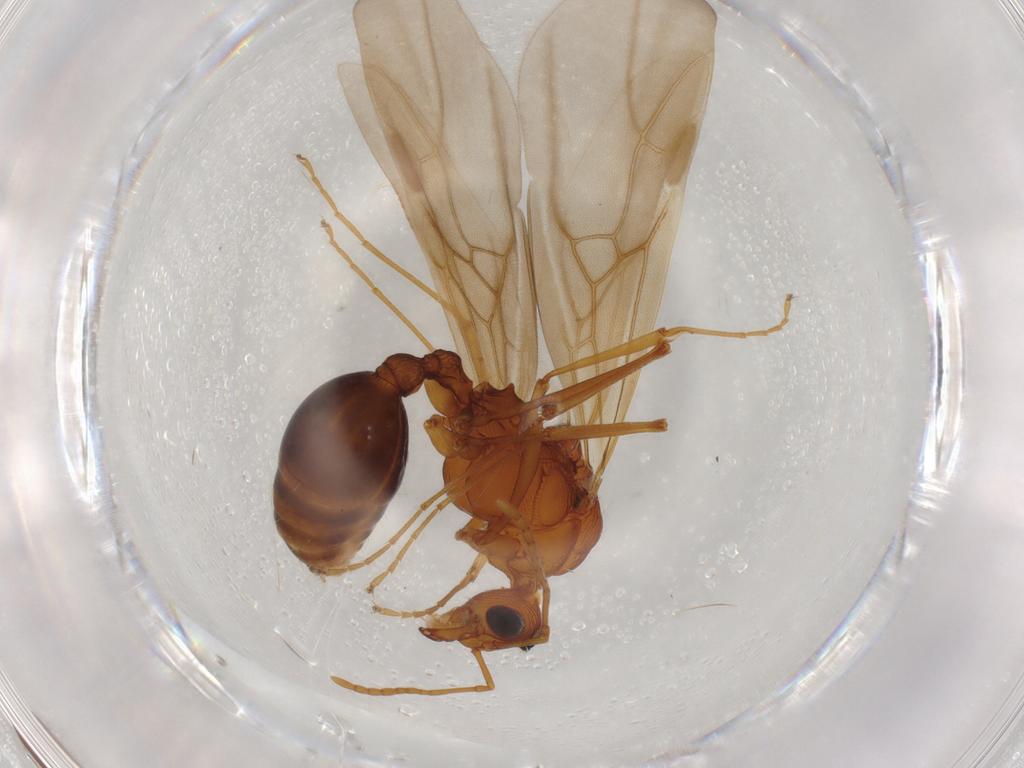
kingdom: Animalia
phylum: Arthropoda
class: Insecta
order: Hymenoptera
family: Formicidae
